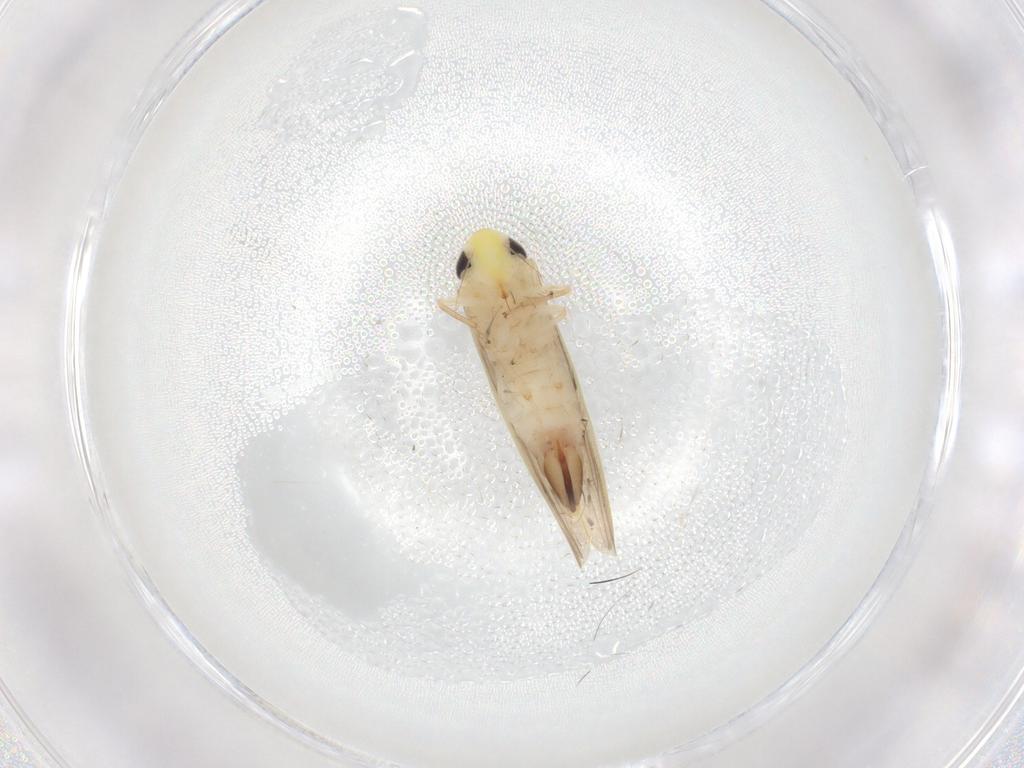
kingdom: Animalia
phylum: Arthropoda
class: Insecta
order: Hemiptera
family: Cicadellidae
